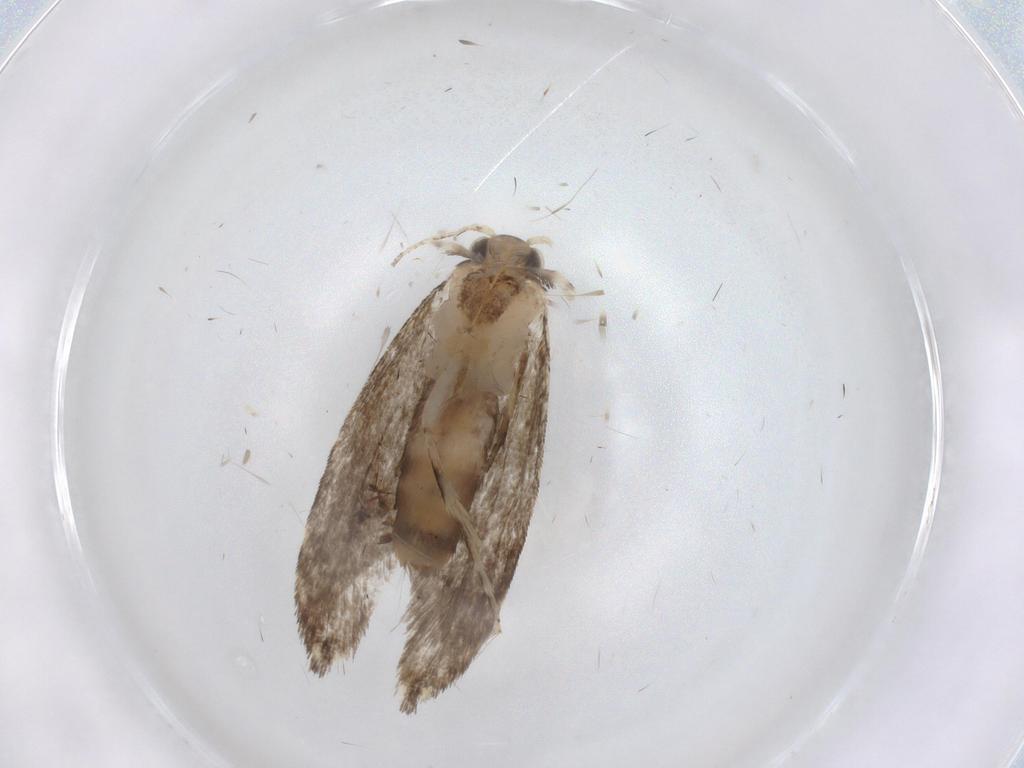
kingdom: Animalia
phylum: Arthropoda
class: Insecta
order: Lepidoptera
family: Tineidae
